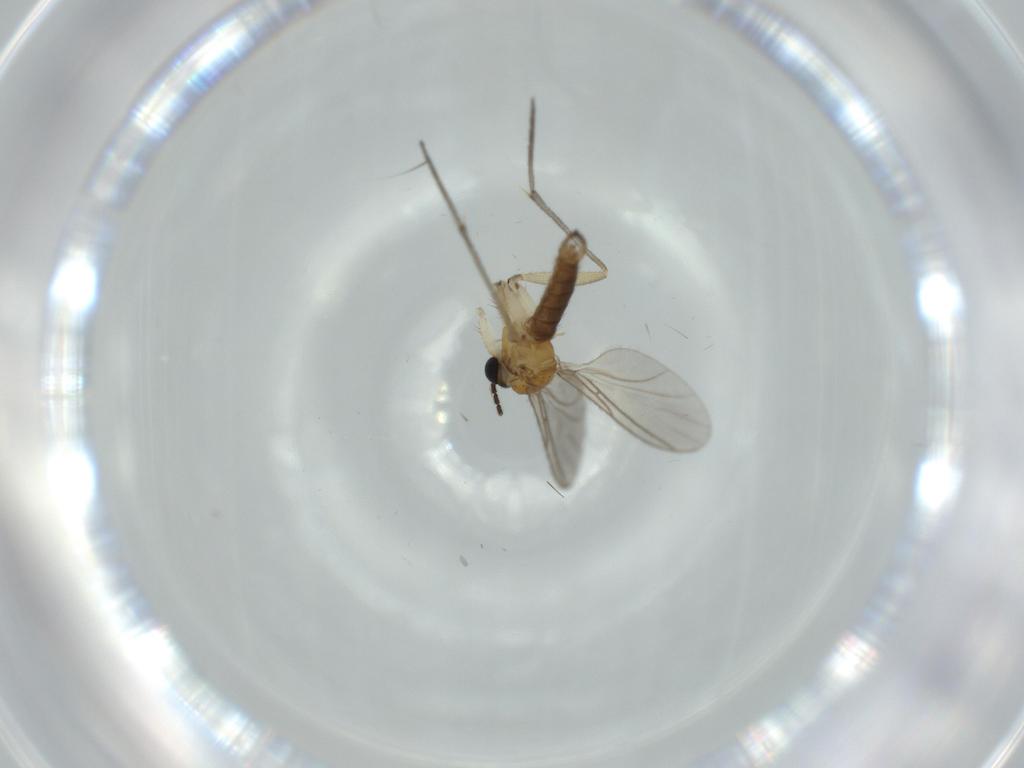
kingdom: Animalia
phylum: Arthropoda
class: Insecta
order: Diptera
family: Sciaridae
